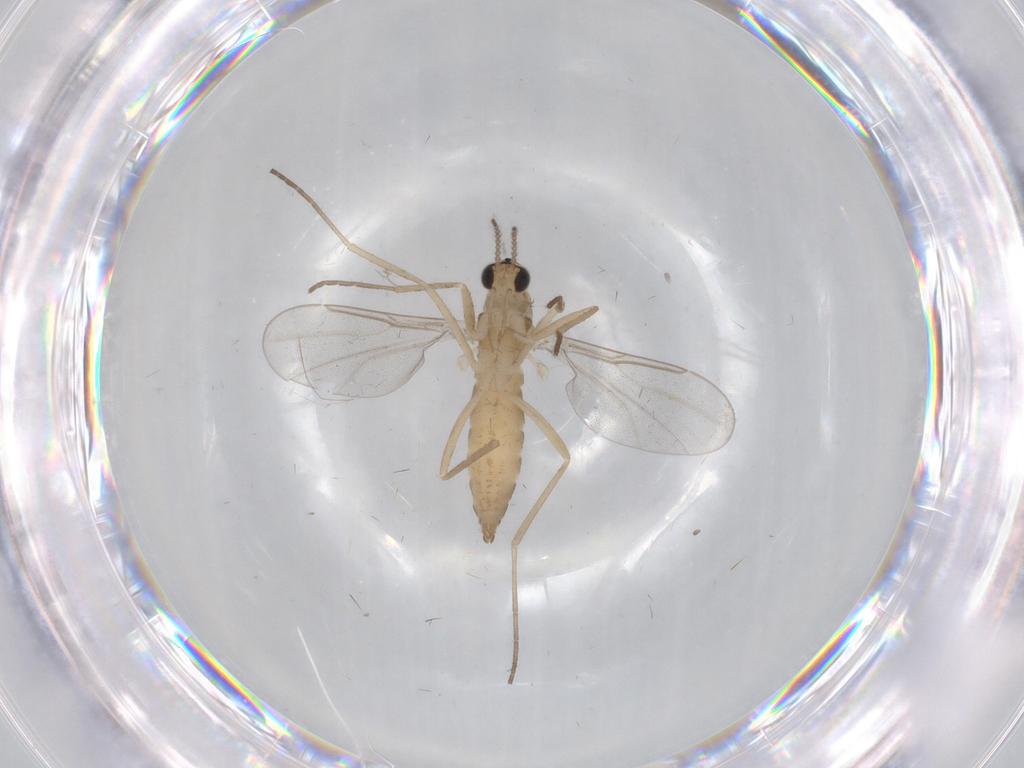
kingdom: Animalia
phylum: Arthropoda
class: Insecta
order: Diptera
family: Cecidomyiidae
